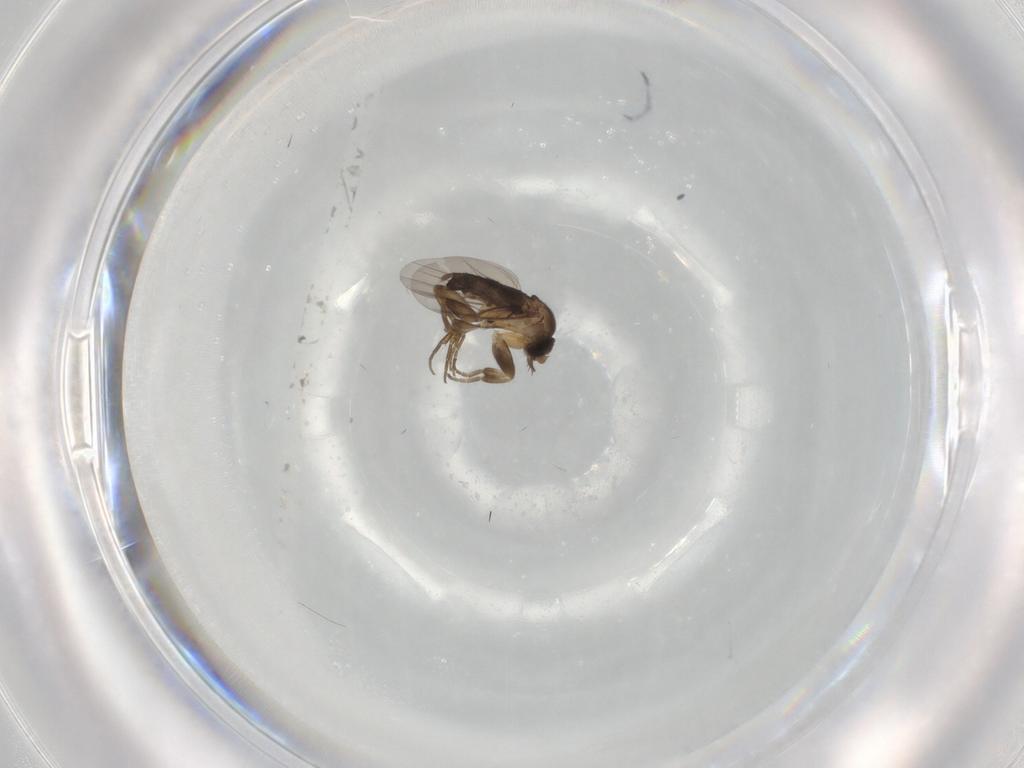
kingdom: Animalia
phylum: Arthropoda
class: Insecta
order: Diptera
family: Phoridae
